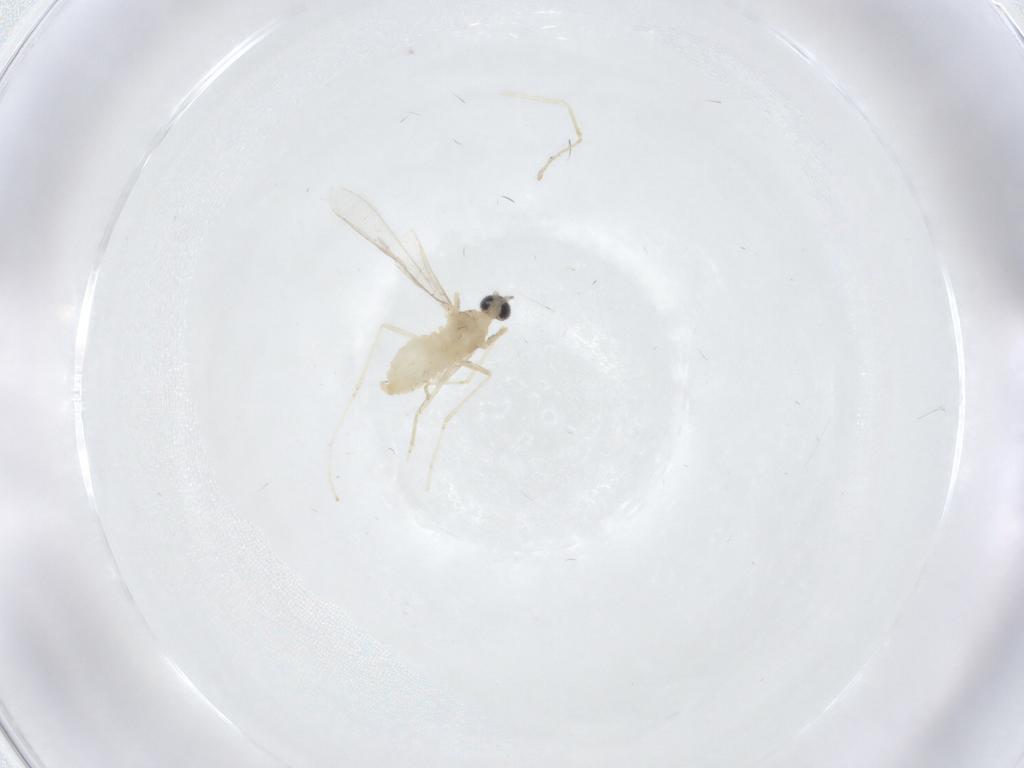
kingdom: Animalia
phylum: Arthropoda
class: Insecta
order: Diptera
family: Cecidomyiidae
